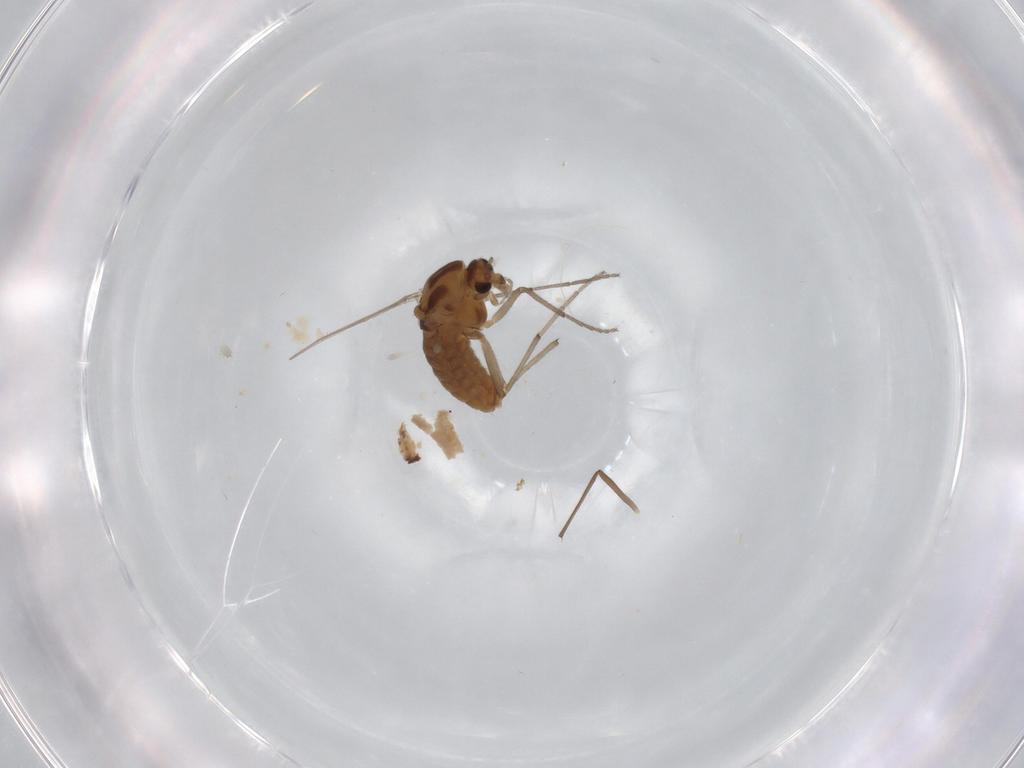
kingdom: Animalia
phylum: Arthropoda
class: Insecta
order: Diptera
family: Chironomidae
